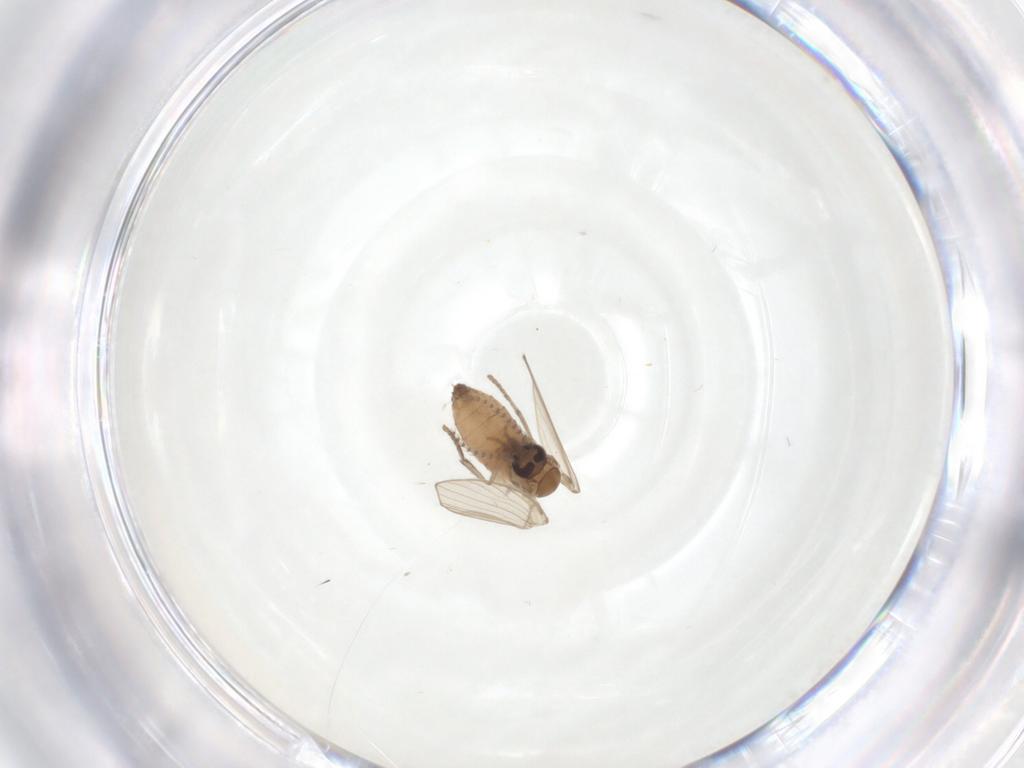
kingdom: Animalia
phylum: Arthropoda
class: Insecta
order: Diptera
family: Psychodidae
